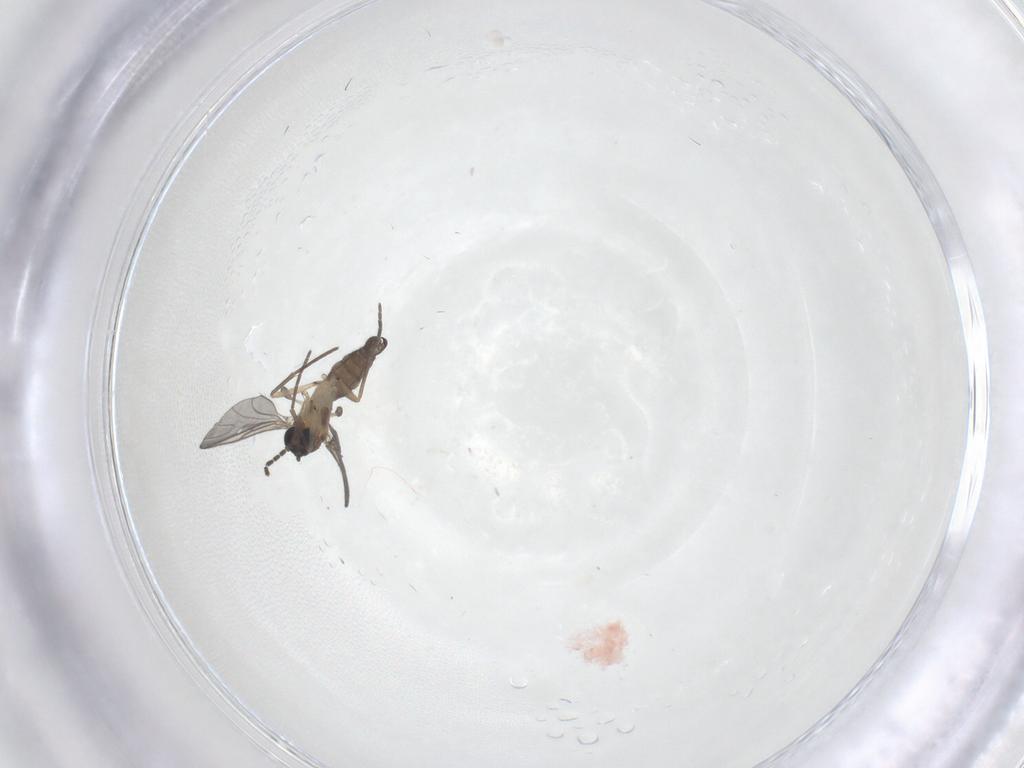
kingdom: Animalia
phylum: Arthropoda
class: Insecta
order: Diptera
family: Sciaridae
